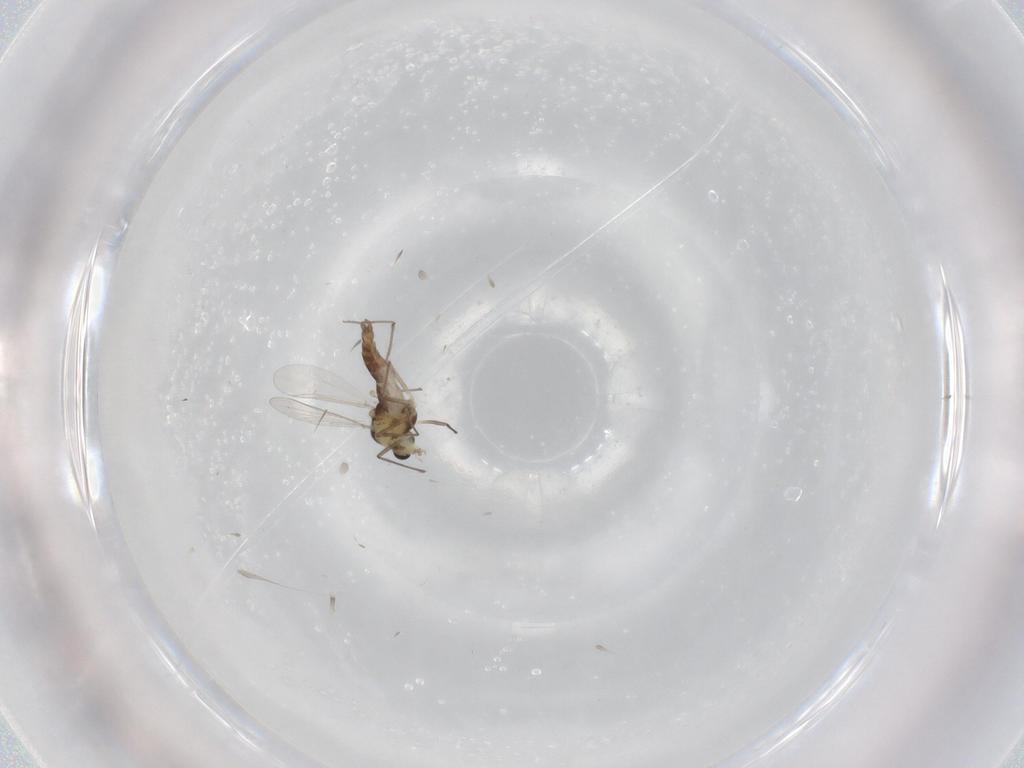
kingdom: Animalia
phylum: Arthropoda
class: Insecta
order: Diptera
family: Chironomidae
